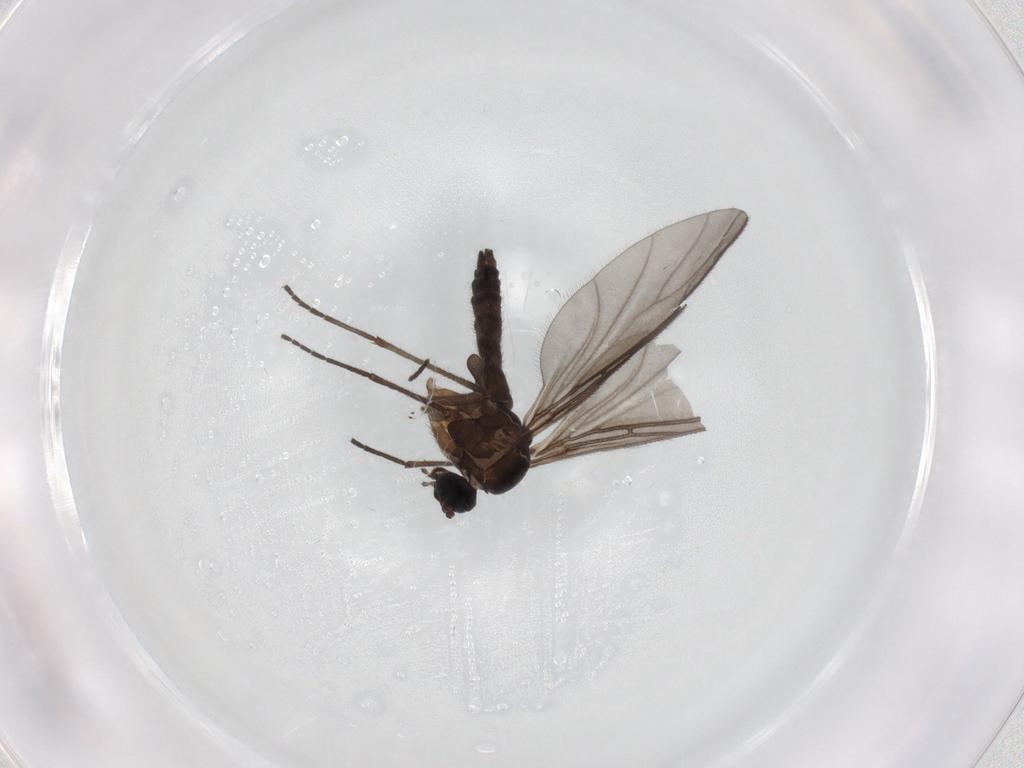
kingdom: Animalia
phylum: Arthropoda
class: Insecta
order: Diptera
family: Sciaridae
